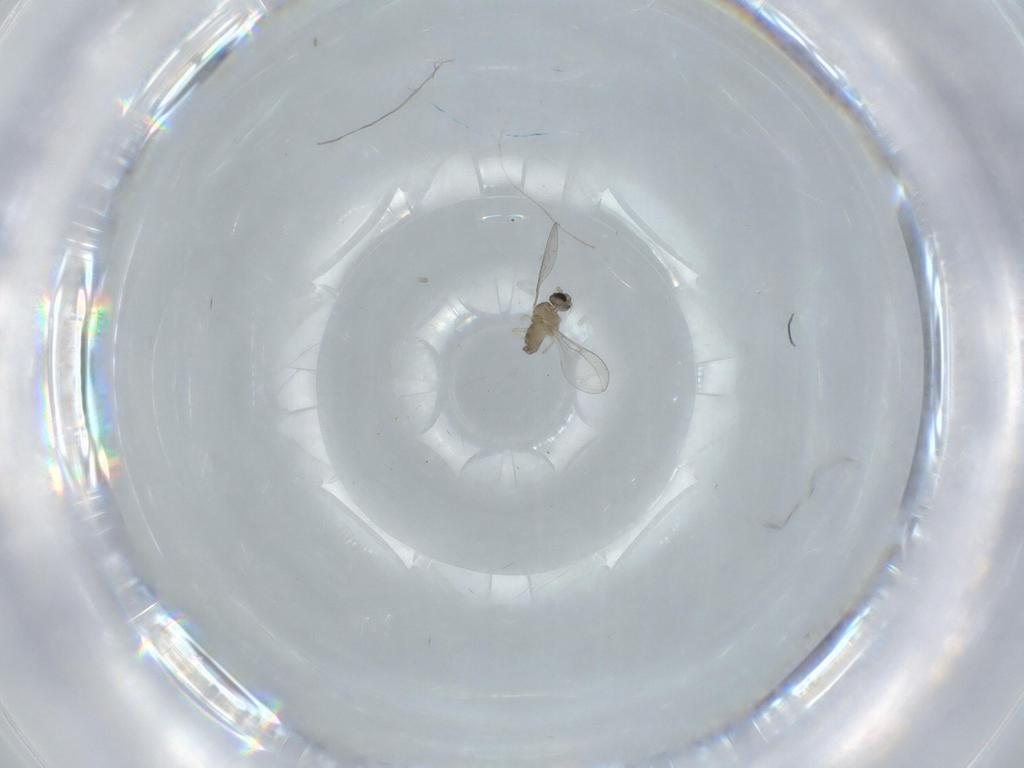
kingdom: Animalia
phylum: Arthropoda
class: Insecta
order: Diptera
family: Cecidomyiidae
